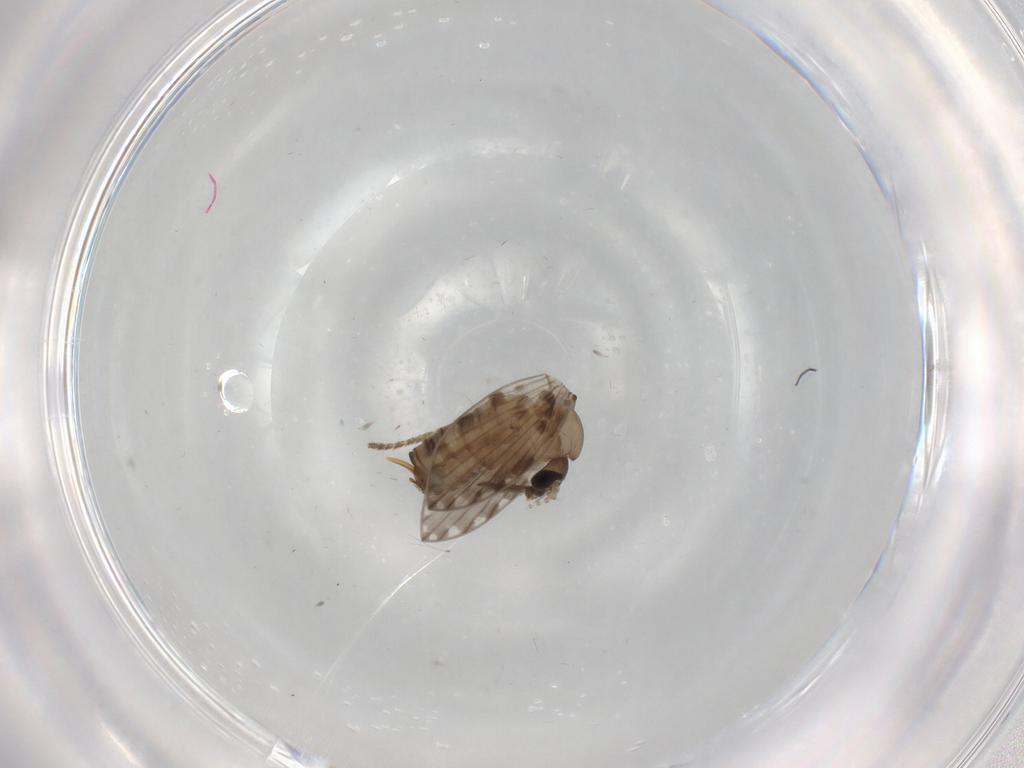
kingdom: Animalia
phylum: Arthropoda
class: Insecta
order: Diptera
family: Psychodidae
